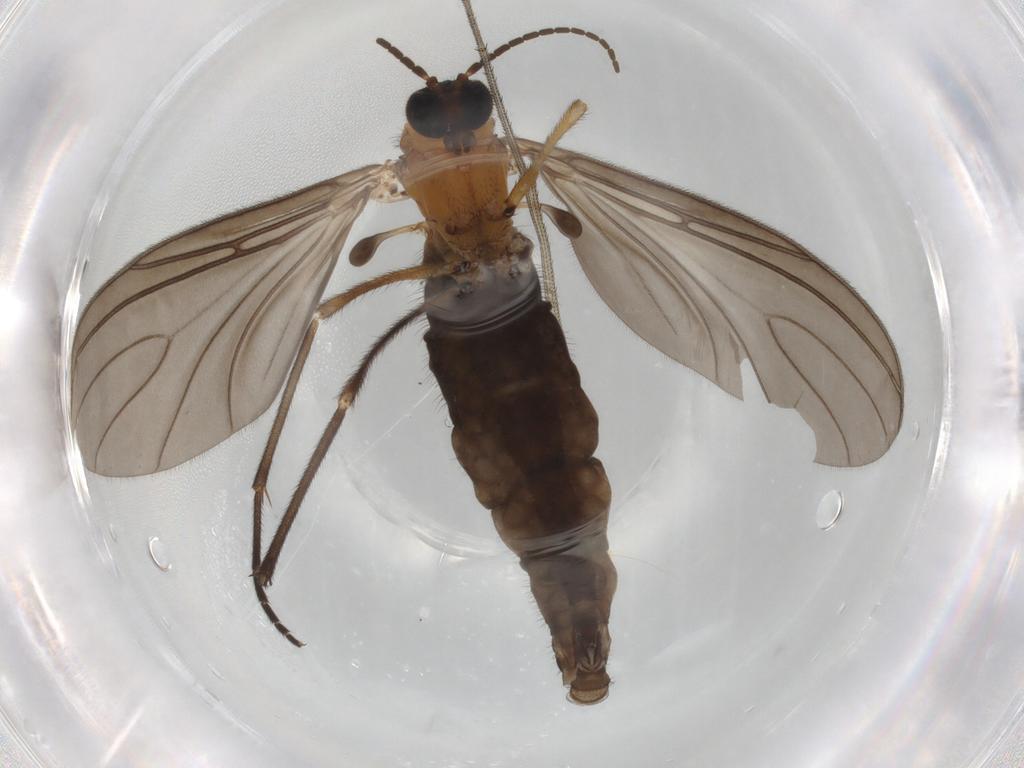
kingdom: Animalia
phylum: Arthropoda
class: Insecta
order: Diptera
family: Sciaridae
